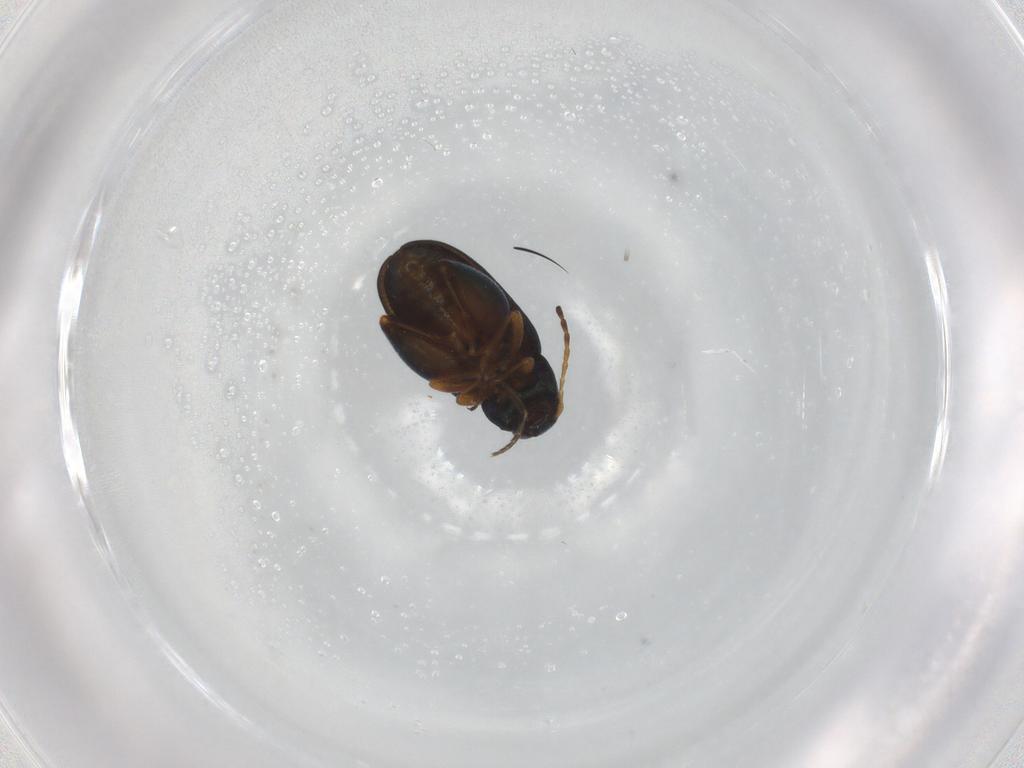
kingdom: Animalia
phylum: Arthropoda
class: Insecta
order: Coleoptera
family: Chrysomelidae
